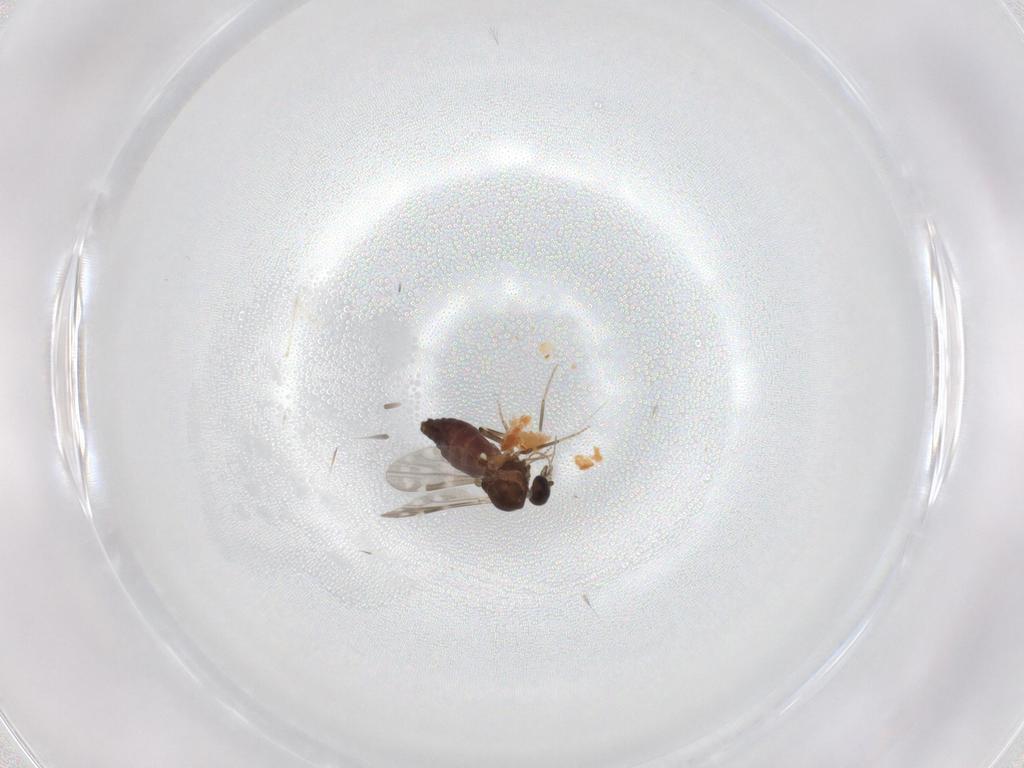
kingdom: Animalia
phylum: Arthropoda
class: Insecta
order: Diptera
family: Ceratopogonidae
